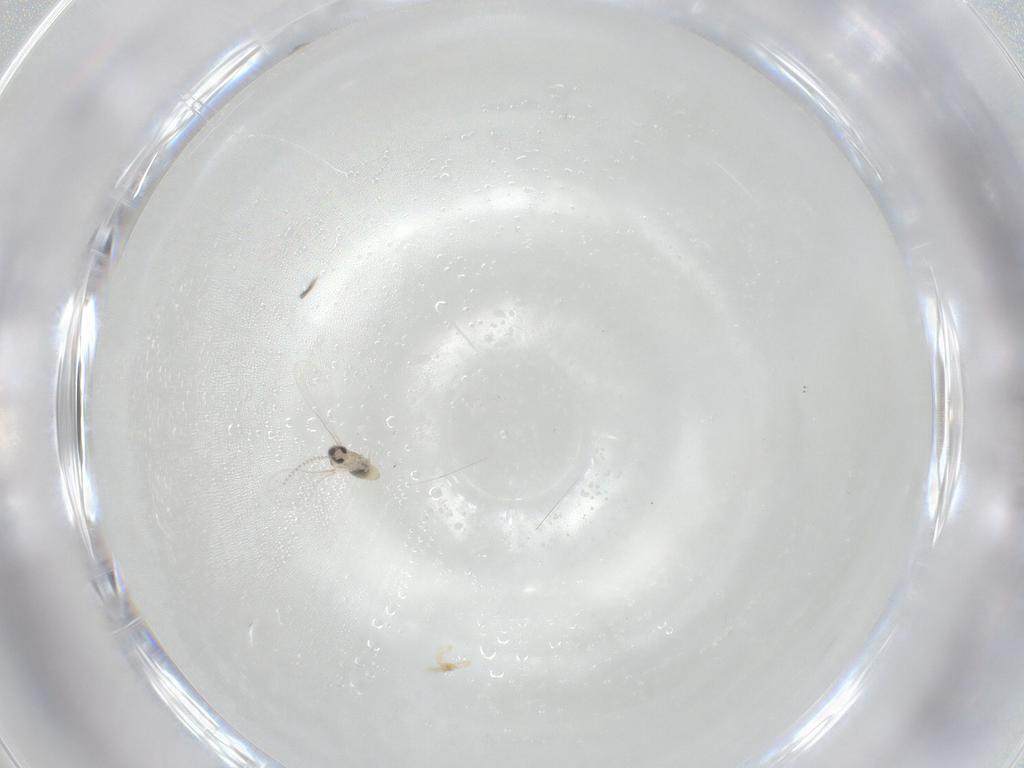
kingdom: Animalia
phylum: Arthropoda
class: Insecta
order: Diptera
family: Cecidomyiidae
